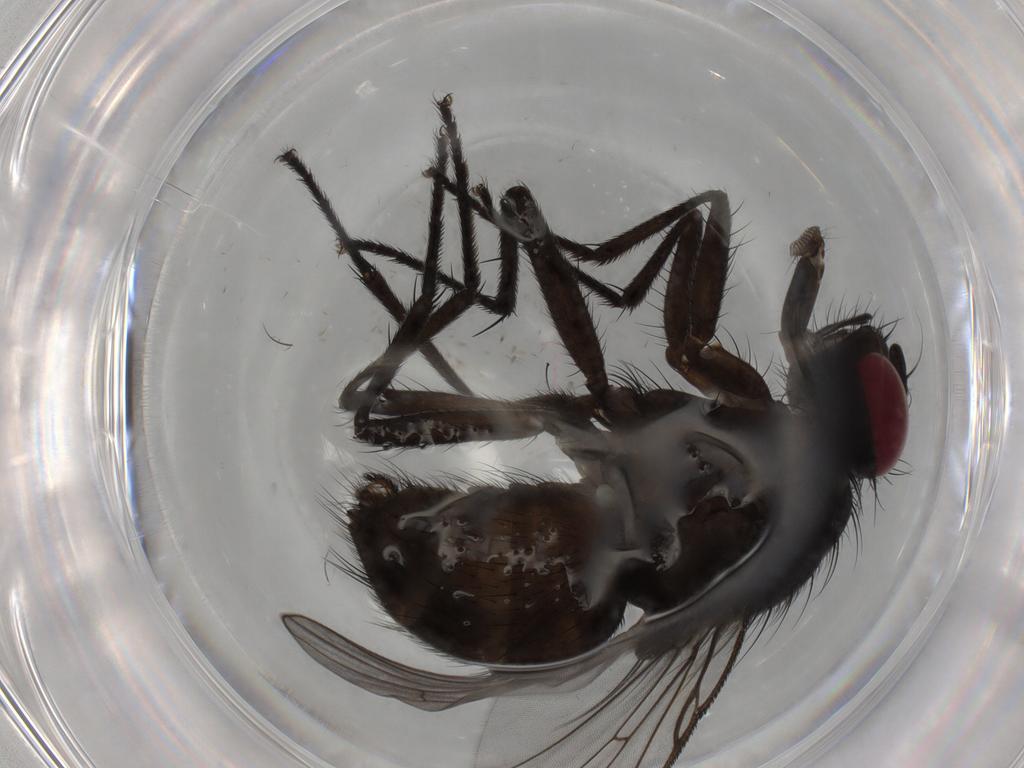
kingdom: Animalia
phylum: Arthropoda
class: Insecta
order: Diptera
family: Muscidae
